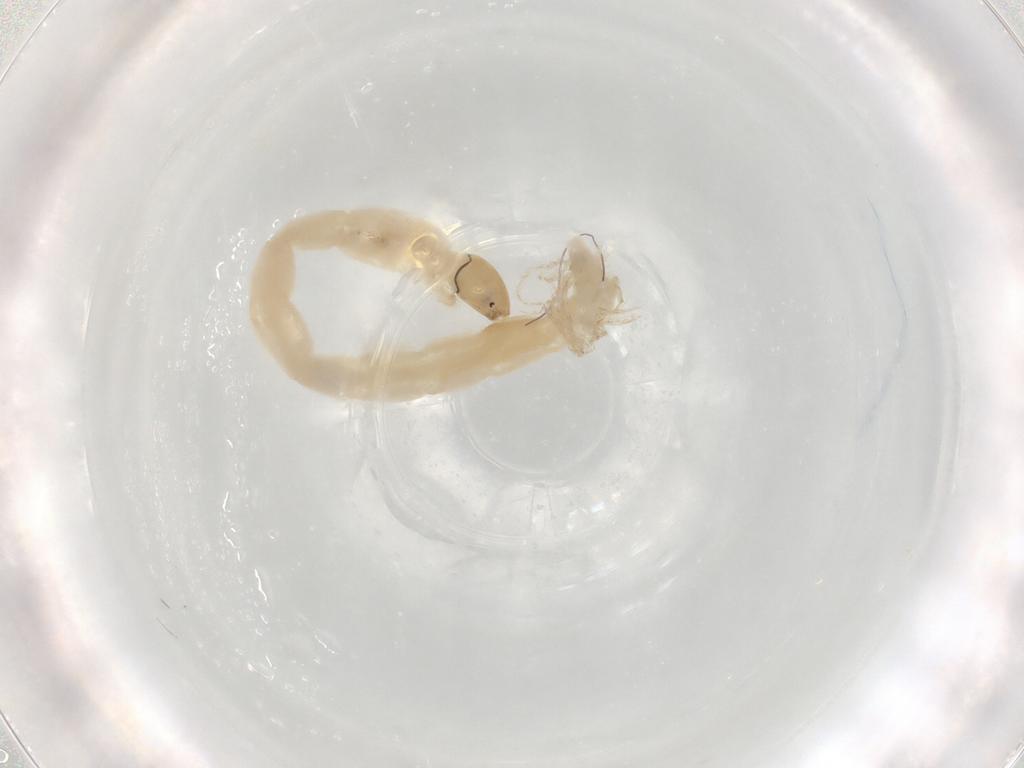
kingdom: Animalia
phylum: Arthropoda
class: Insecta
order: Diptera
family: Chironomidae
